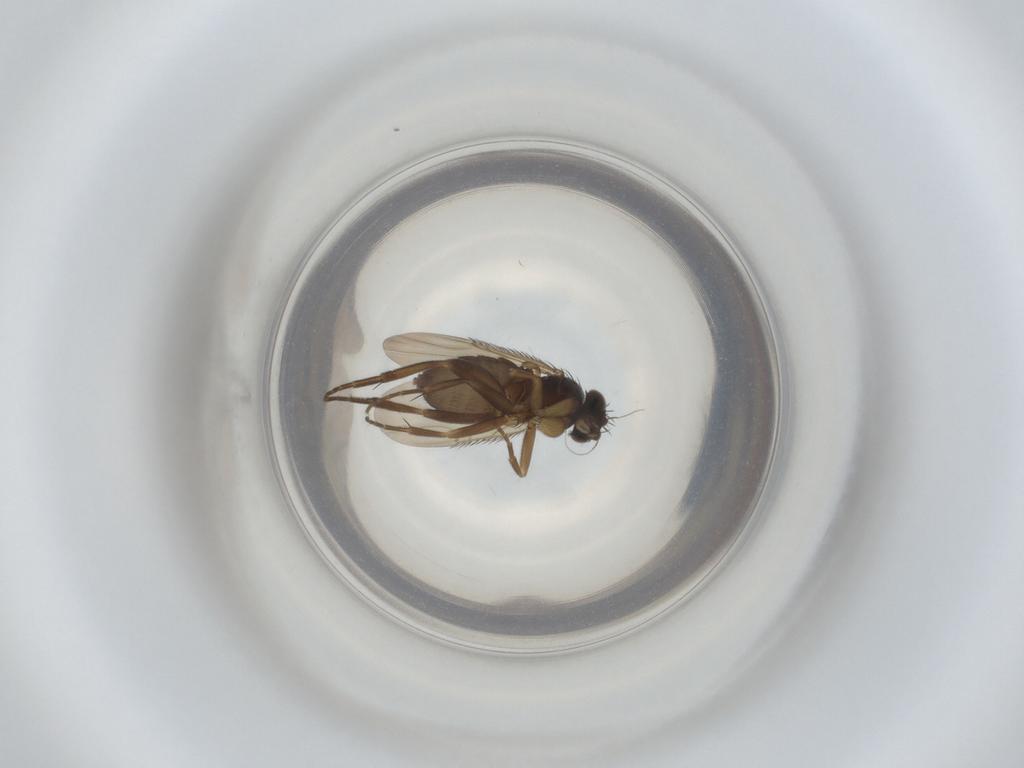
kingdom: Animalia
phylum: Arthropoda
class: Insecta
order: Diptera
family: Phoridae
